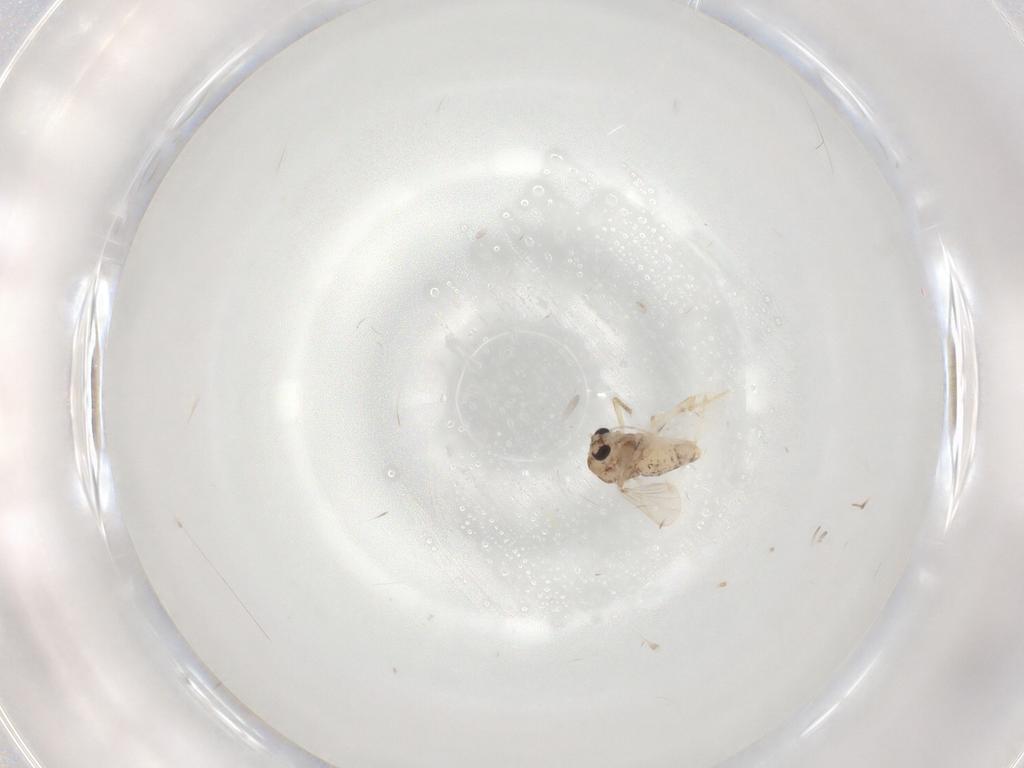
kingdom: Animalia
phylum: Arthropoda
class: Insecta
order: Diptera
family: Chironomidae
